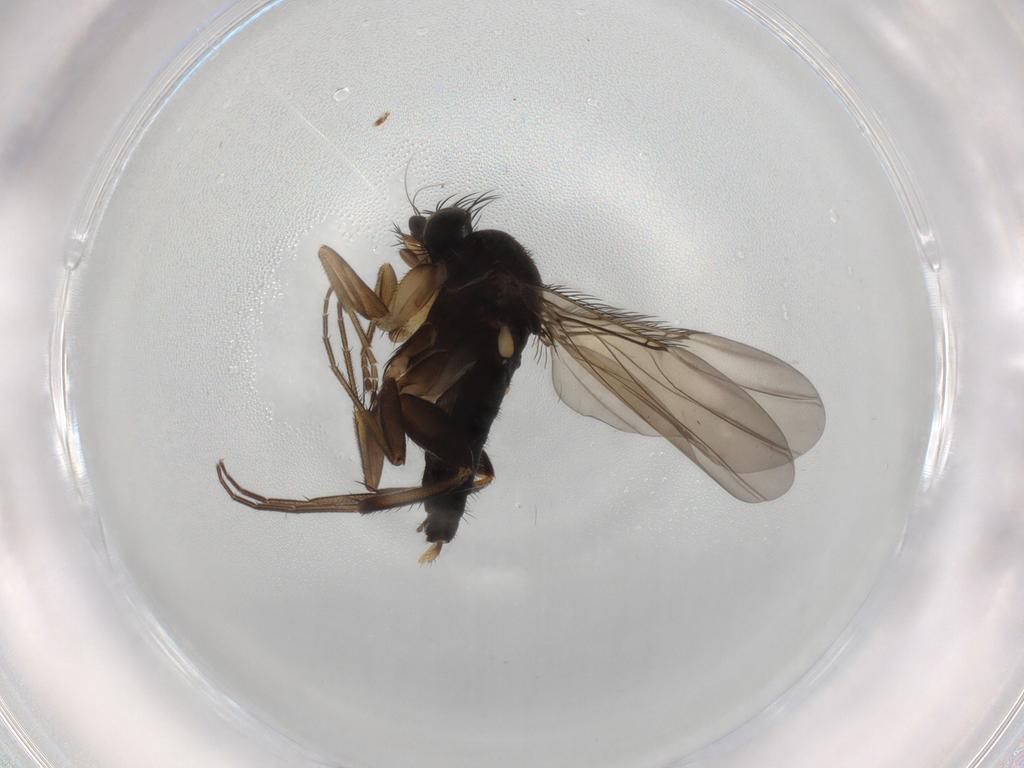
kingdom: Animalia
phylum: Arthropoda
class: Insecta
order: Diptera
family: Phoridae
